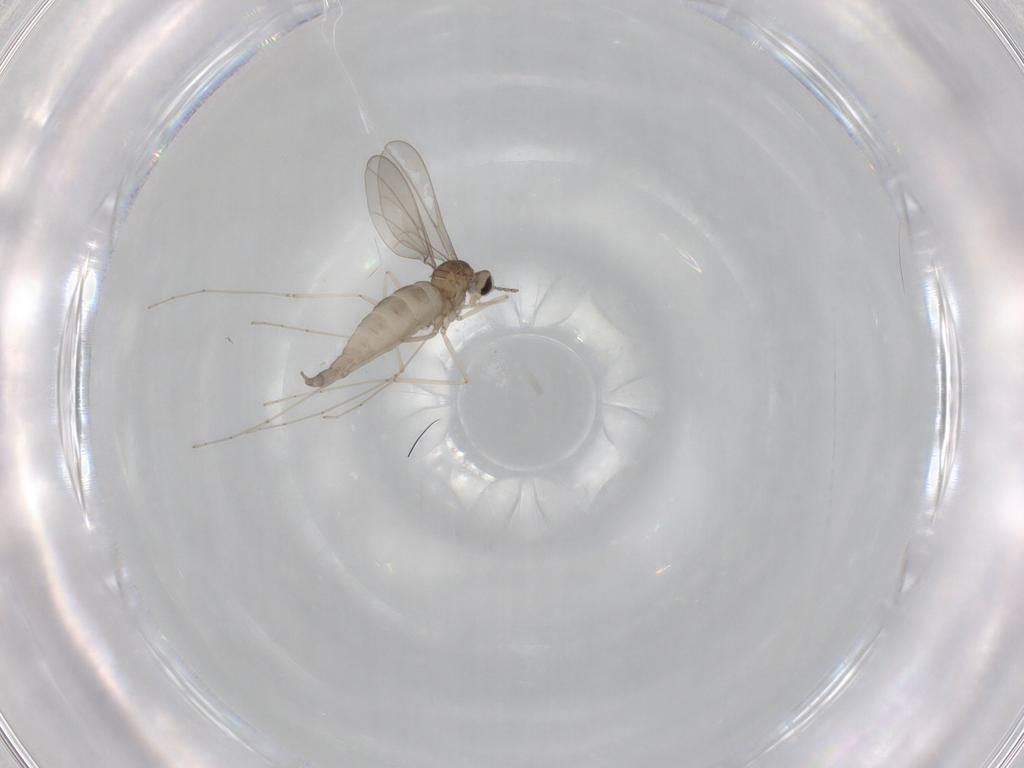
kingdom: Animalia
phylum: Arthropoda
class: Insecta
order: Diptera
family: Cecidomyiidae
